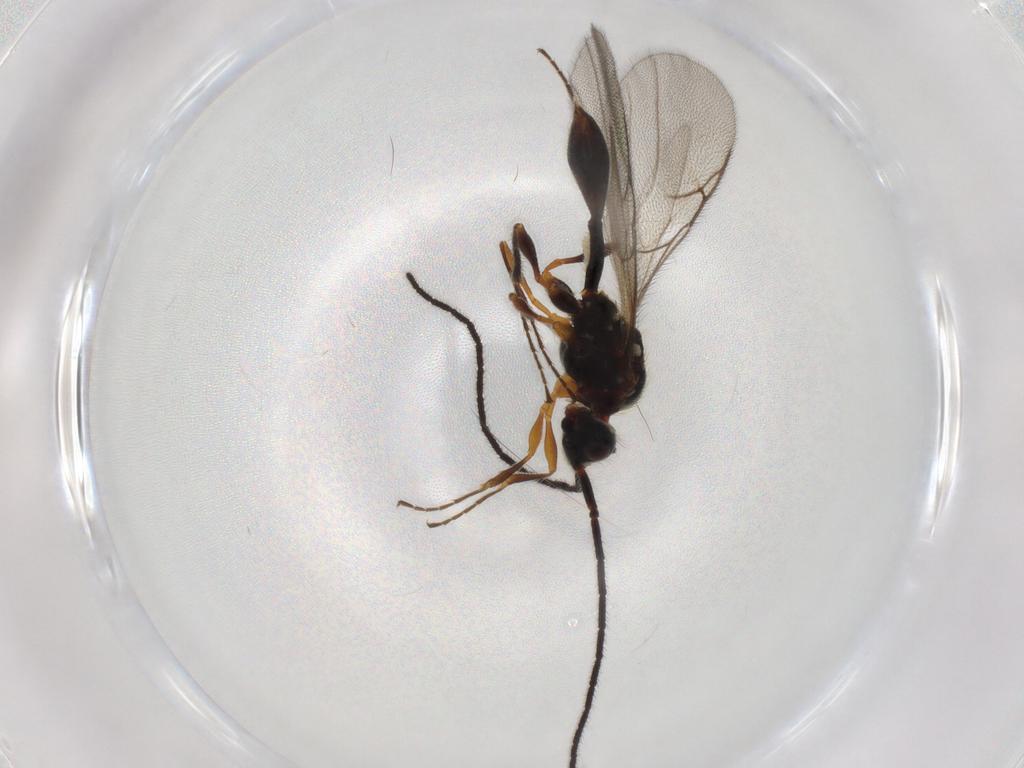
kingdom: Animalia
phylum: Arthropoda
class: Insecta
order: Hymenoptera
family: Diapriidae
